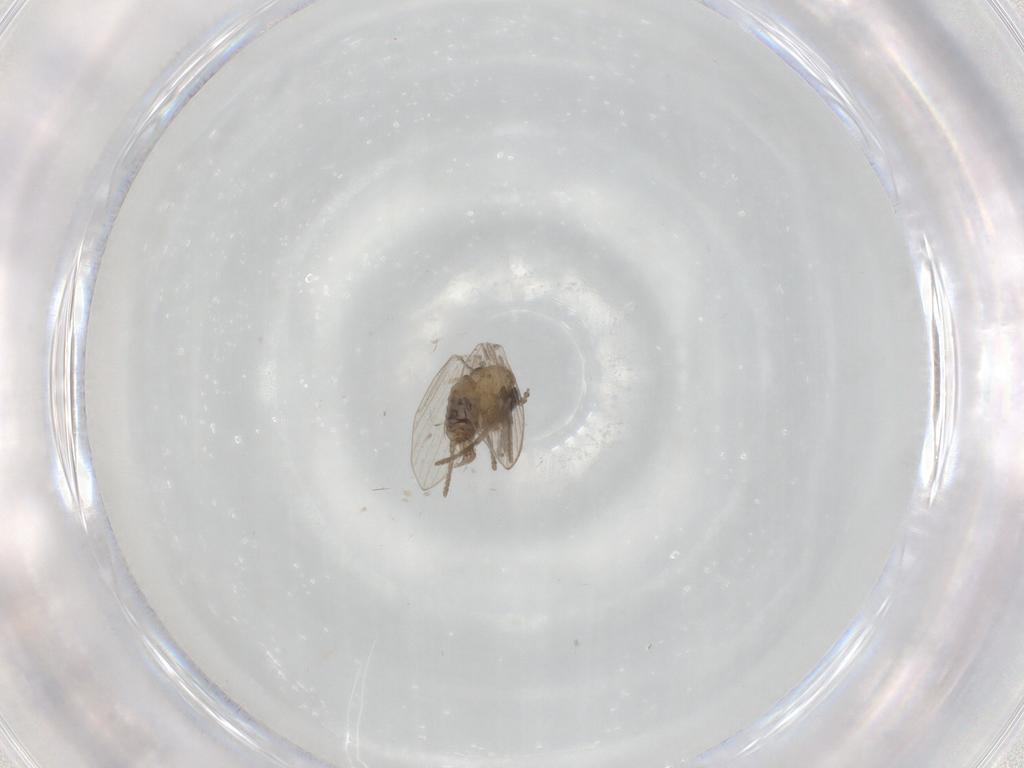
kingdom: Animalia
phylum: Arthropoda
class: Insecta
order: Diptera
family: Psychodidae
